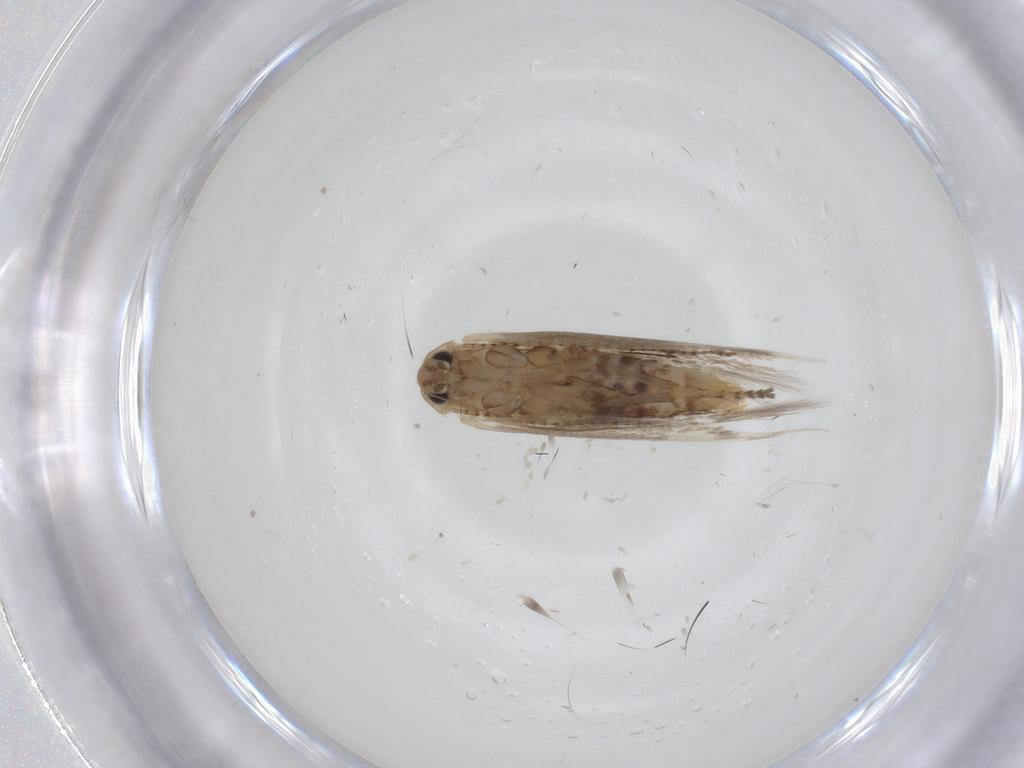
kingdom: Animalia
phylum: Arthropoda
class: Insecta
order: Lepidoptera
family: Bucculatricidae
